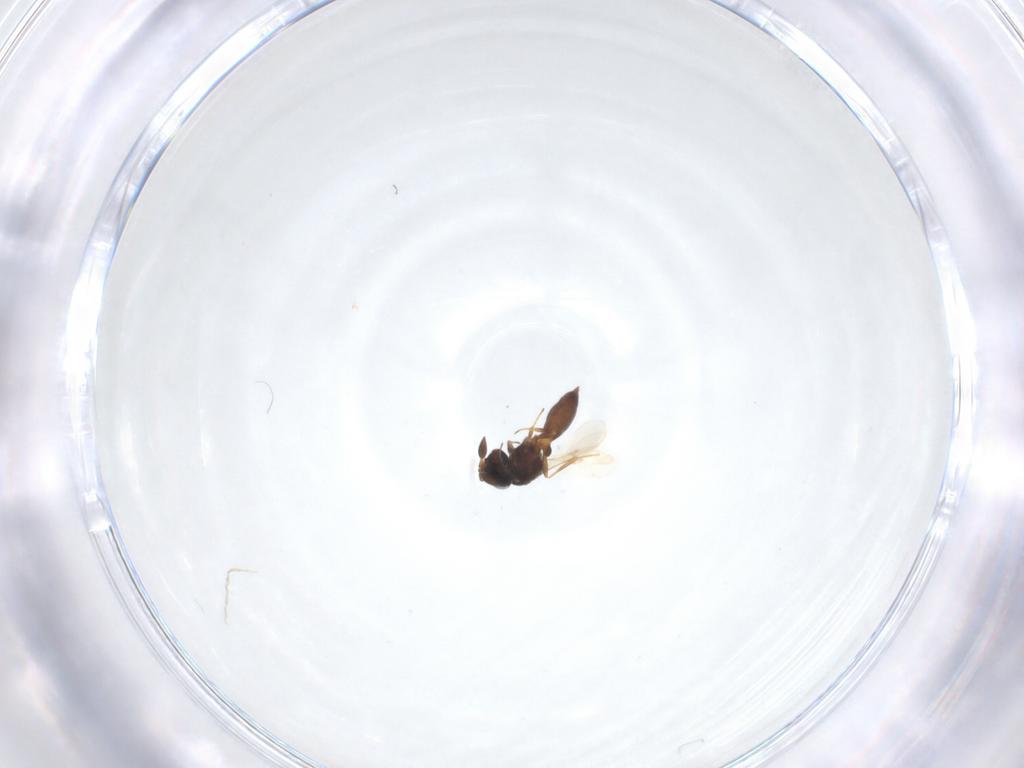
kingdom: Animalia
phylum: Arthropoda
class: Insecta
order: Hymenoptera
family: Scelionidae
